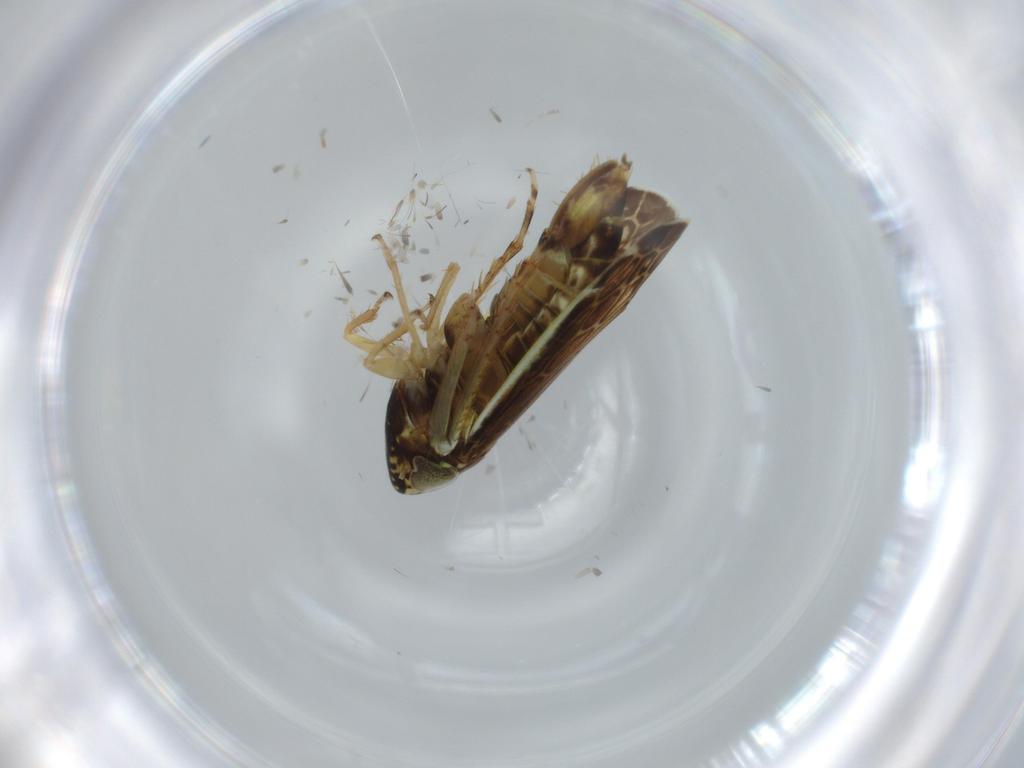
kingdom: Animalia
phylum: Arthropoda
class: Insecta
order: Hemiptera
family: Cicadellidae
